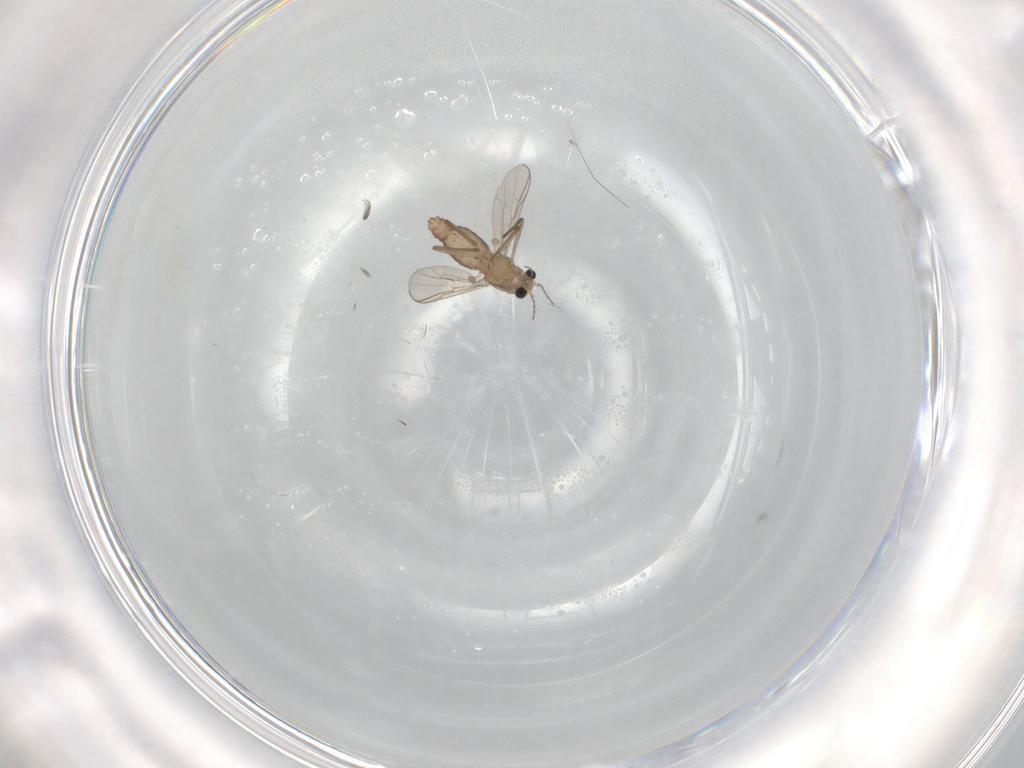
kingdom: Animalia
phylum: Arthropoda
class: Insecta
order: Diptera
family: Chironomidae
